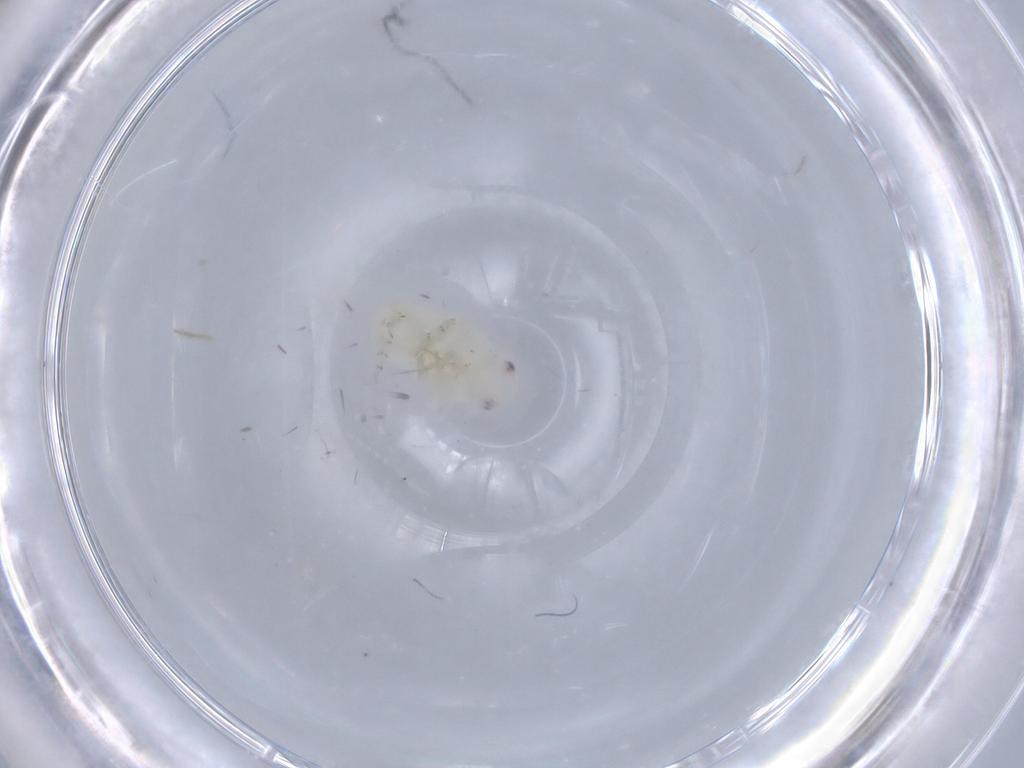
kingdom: Animalia
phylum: Arthropoda
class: Insecta
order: Hemiptera
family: Flatidae
